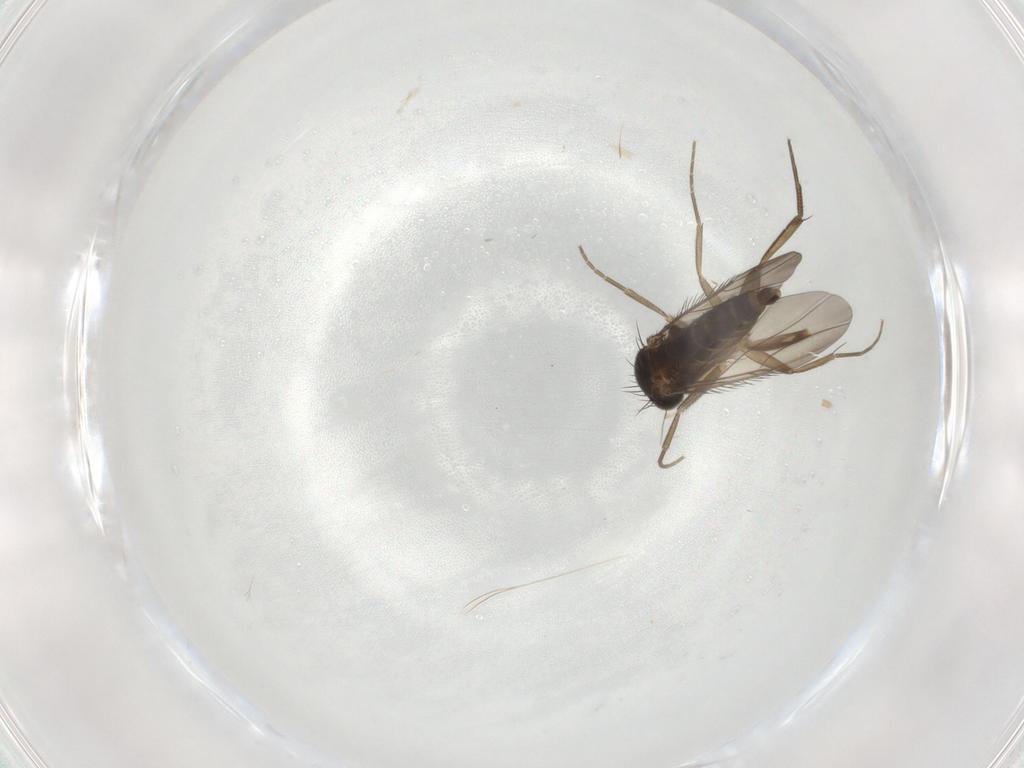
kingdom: Animalia
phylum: Arthropoda
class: Insecta
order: Diptera
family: Phoridae
